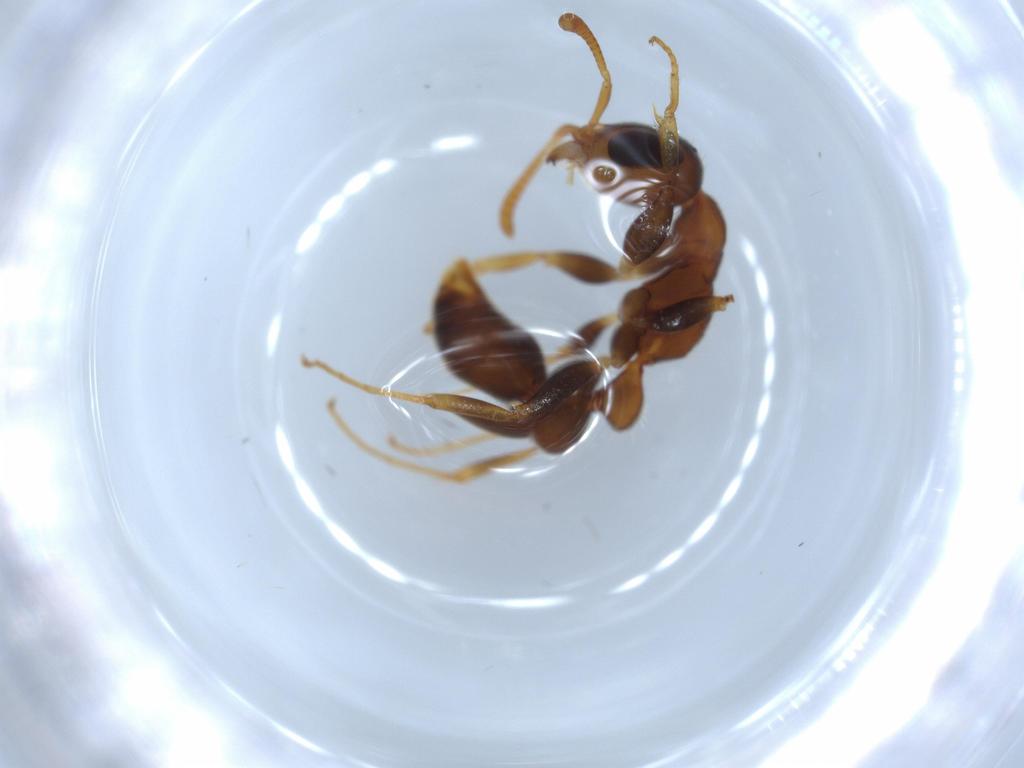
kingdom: Animalia
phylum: Arthropoda
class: Insecta
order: Hymenoptera
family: Formicidae
